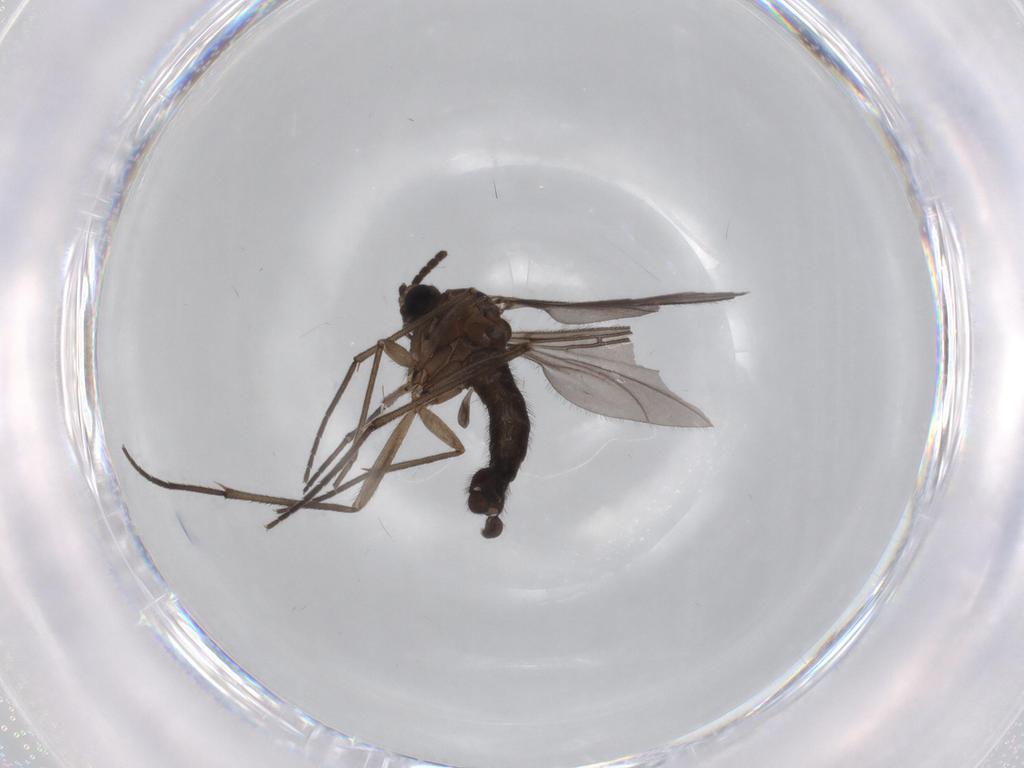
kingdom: Animalia
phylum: Arthropoda
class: Insecta
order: Diptera
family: Sciaridae
